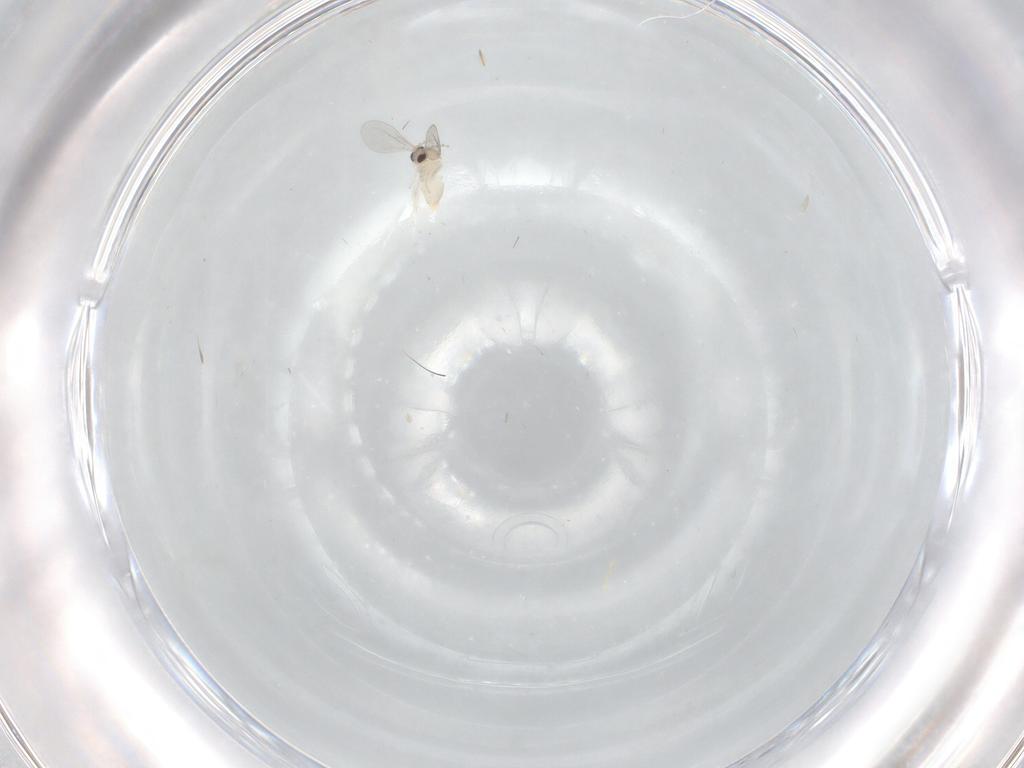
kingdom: Animalia
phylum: Arthropoda
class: Insecta
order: Diptera
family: Cecidomyiidae
